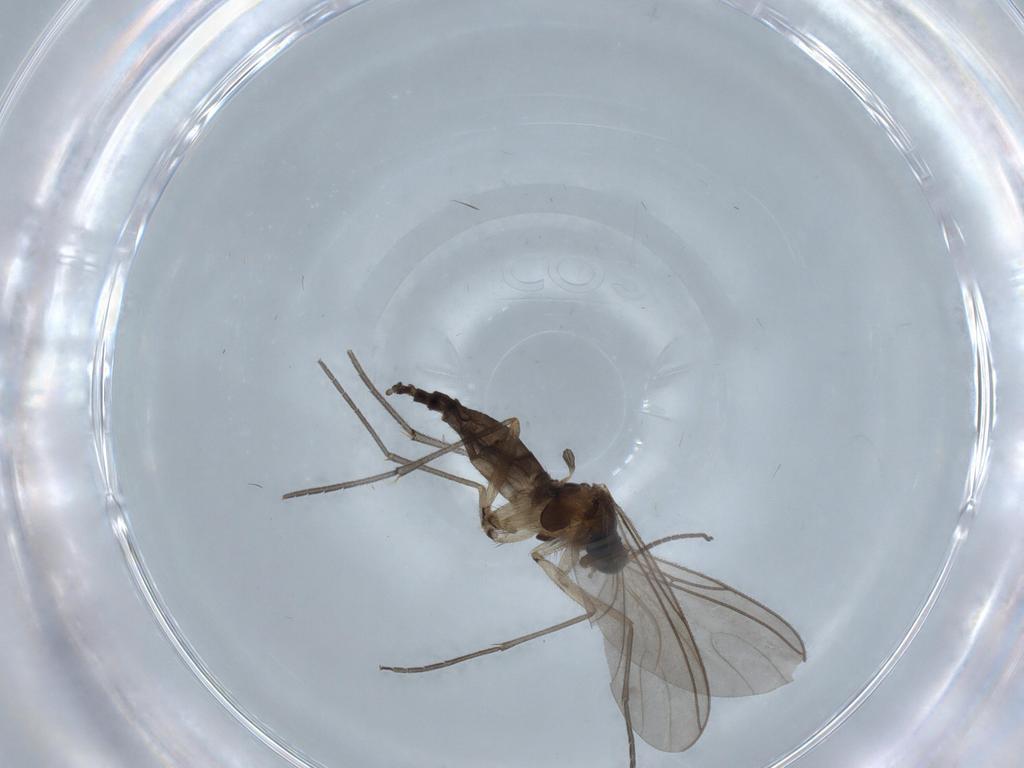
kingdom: Animalia
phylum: Arthropoda
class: Insecta
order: Diptera
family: Sciaridae
